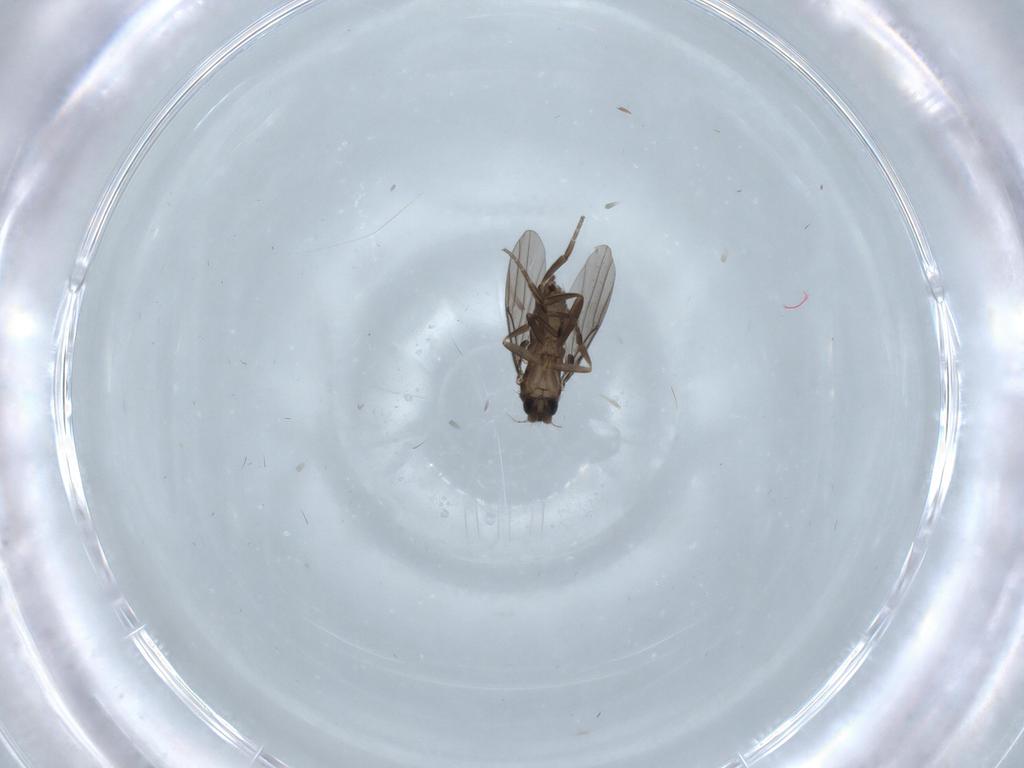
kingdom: Animalia
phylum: Arthropoda
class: Insecta
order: Diptera
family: Phoridae
